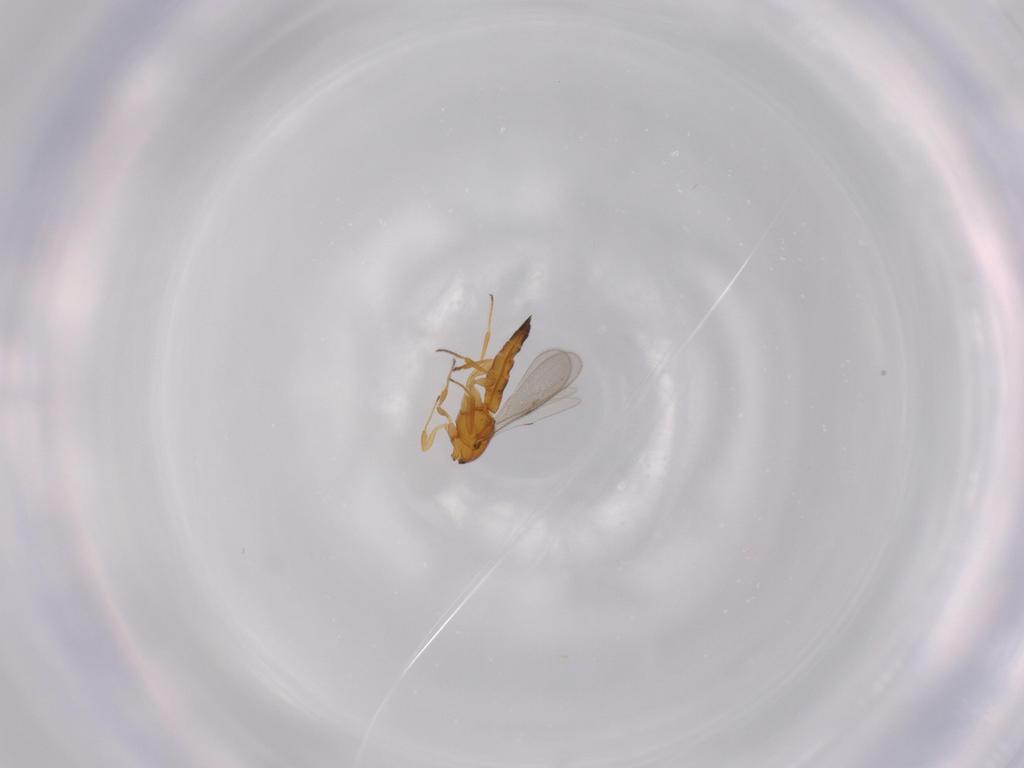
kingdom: Animalia
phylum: Arthropoda
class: Insecta
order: Hymenoptera
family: Scelionidae
